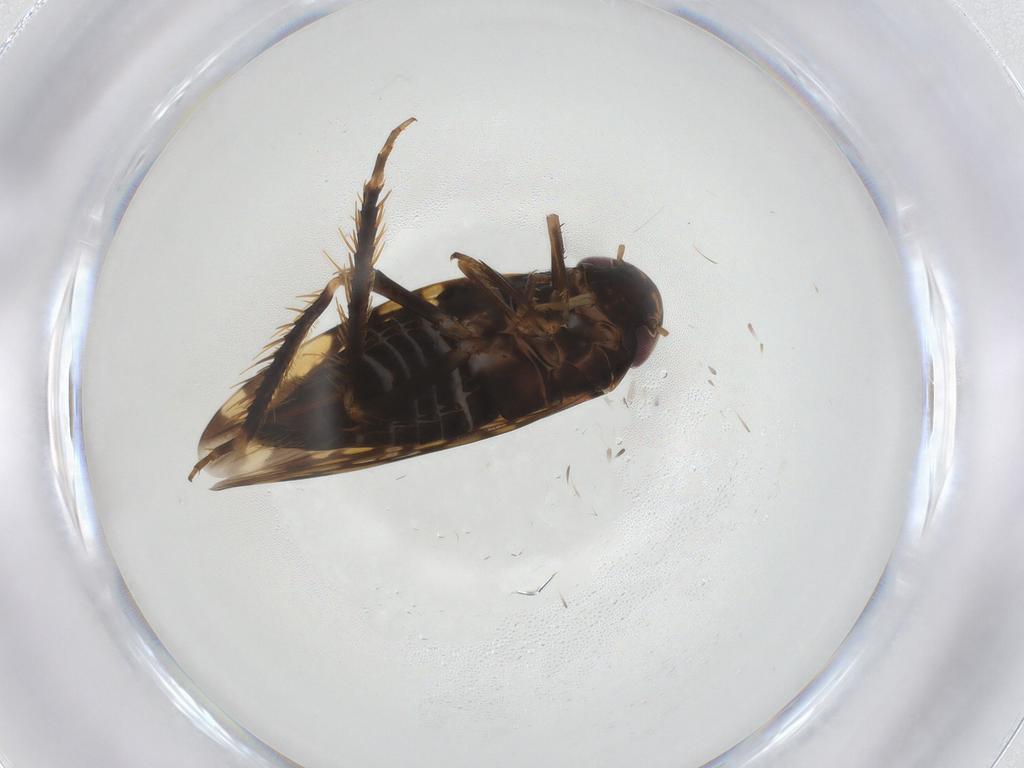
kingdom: Animalia
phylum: Arthropoda
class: Insecta
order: Hemiptera
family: Cicadellidae
